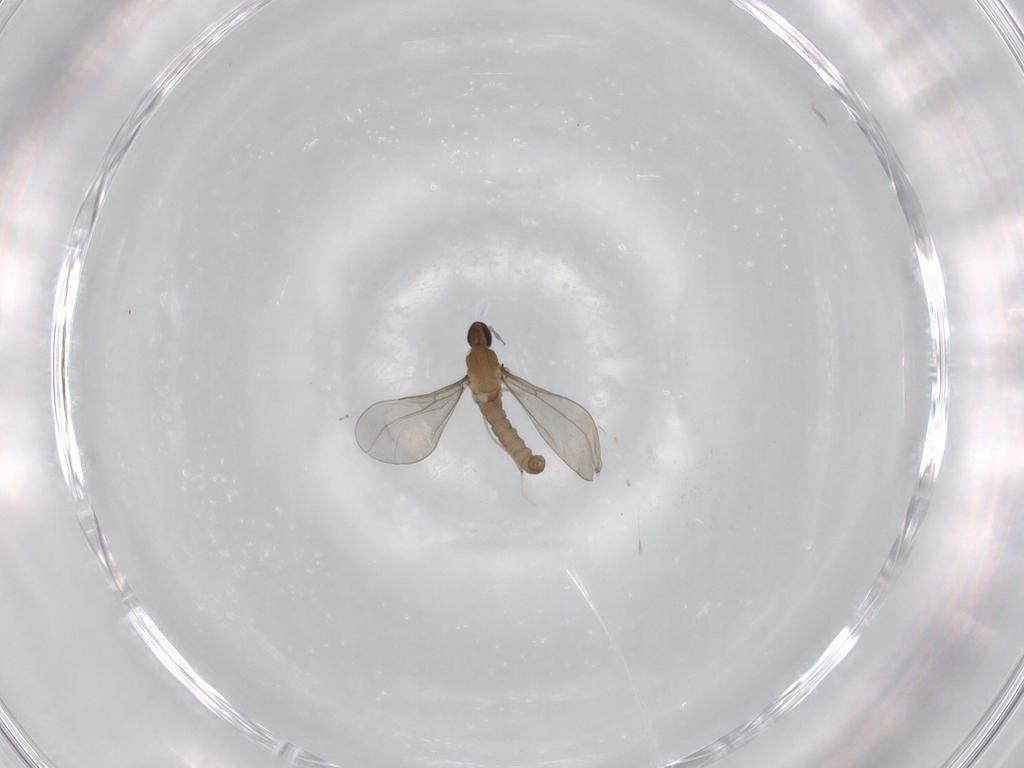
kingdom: Animalia
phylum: Arthropoda
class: Insecta
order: Diptera
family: Cecidomyiidae
